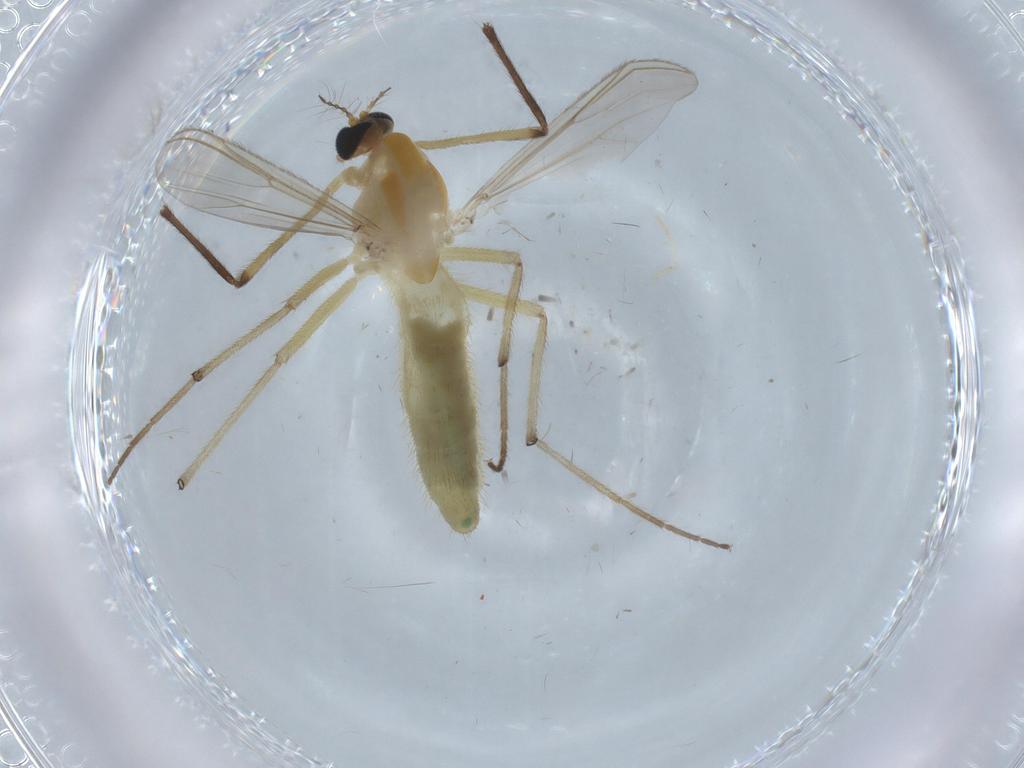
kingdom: Animalia
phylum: Arthropoda
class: Insecta
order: Diptera
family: Chironomidae
